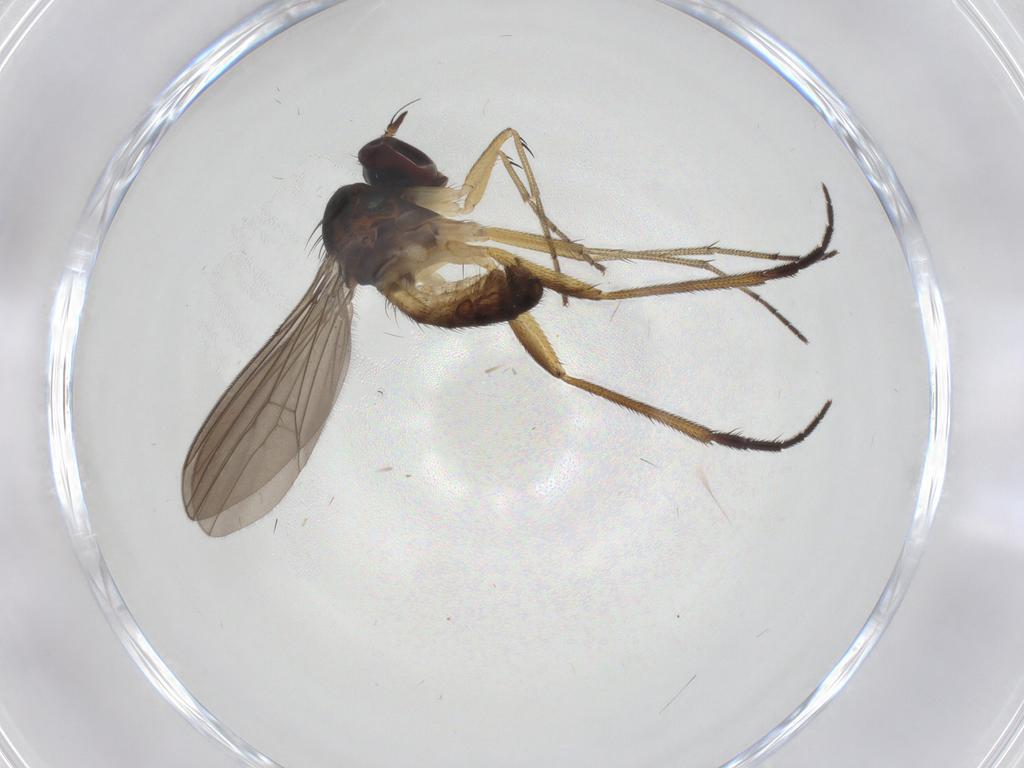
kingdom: Animalia
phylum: Arthropoda
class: Insecta
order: Diptera
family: Dolichopodidae
